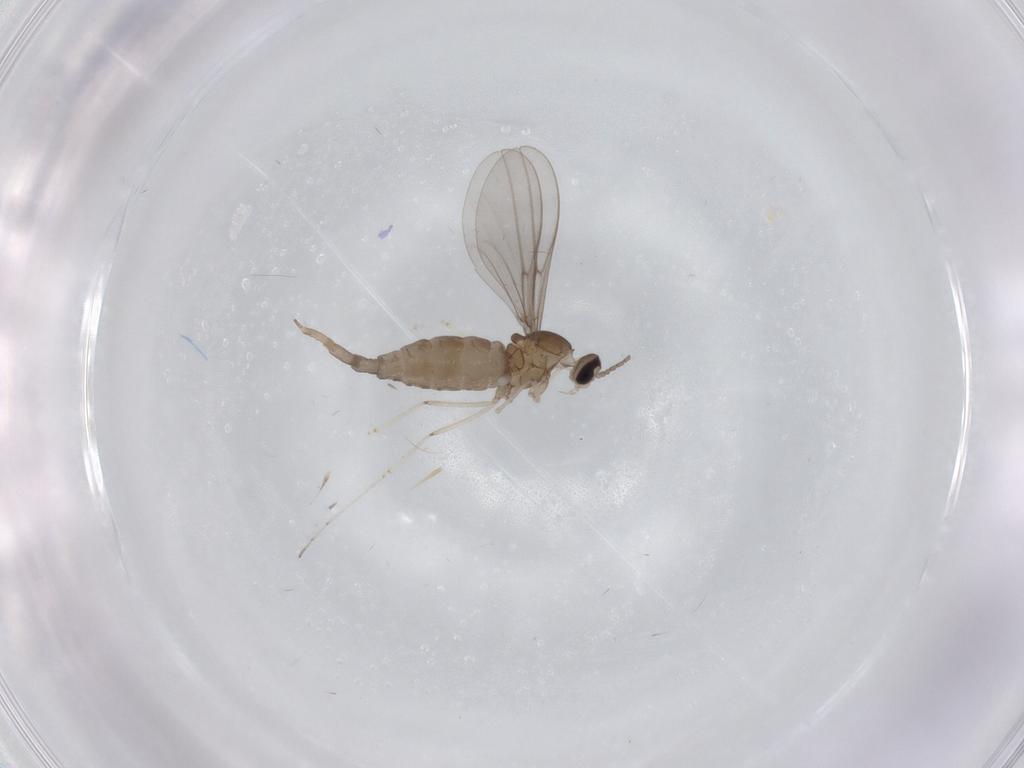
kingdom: Animalia
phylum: Arthropoda
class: Insecta
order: Diptera
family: Cecidomyiidae
